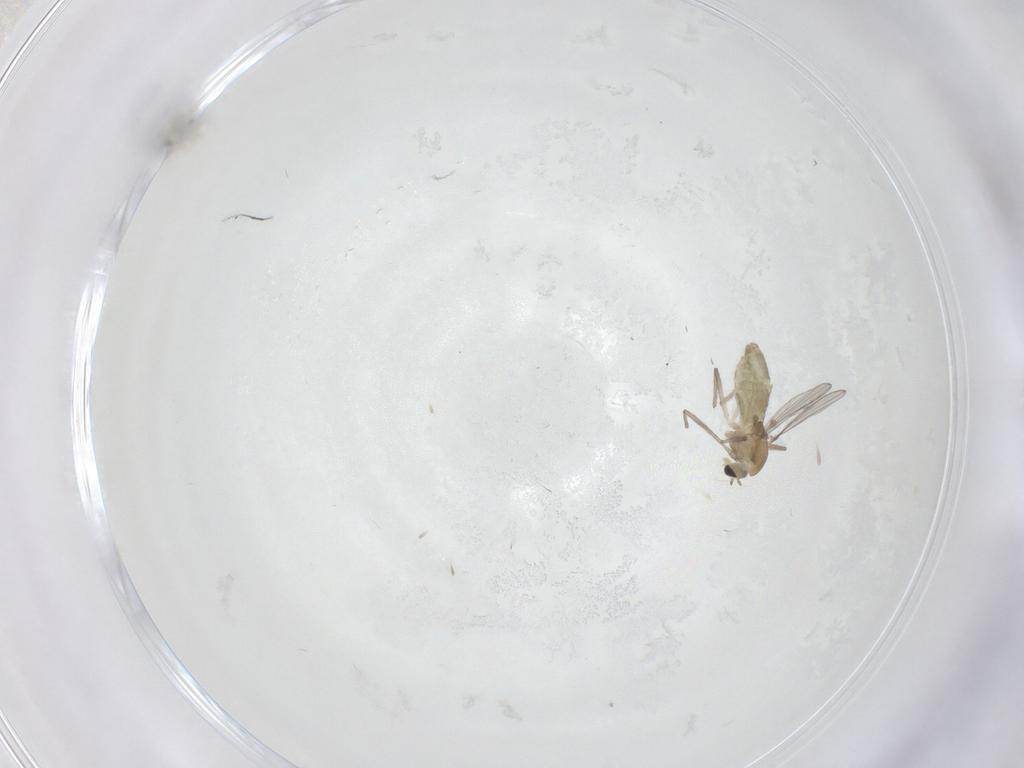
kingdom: Animalia
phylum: Arthropoda
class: Insecta
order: Diptera
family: Chironomidae
